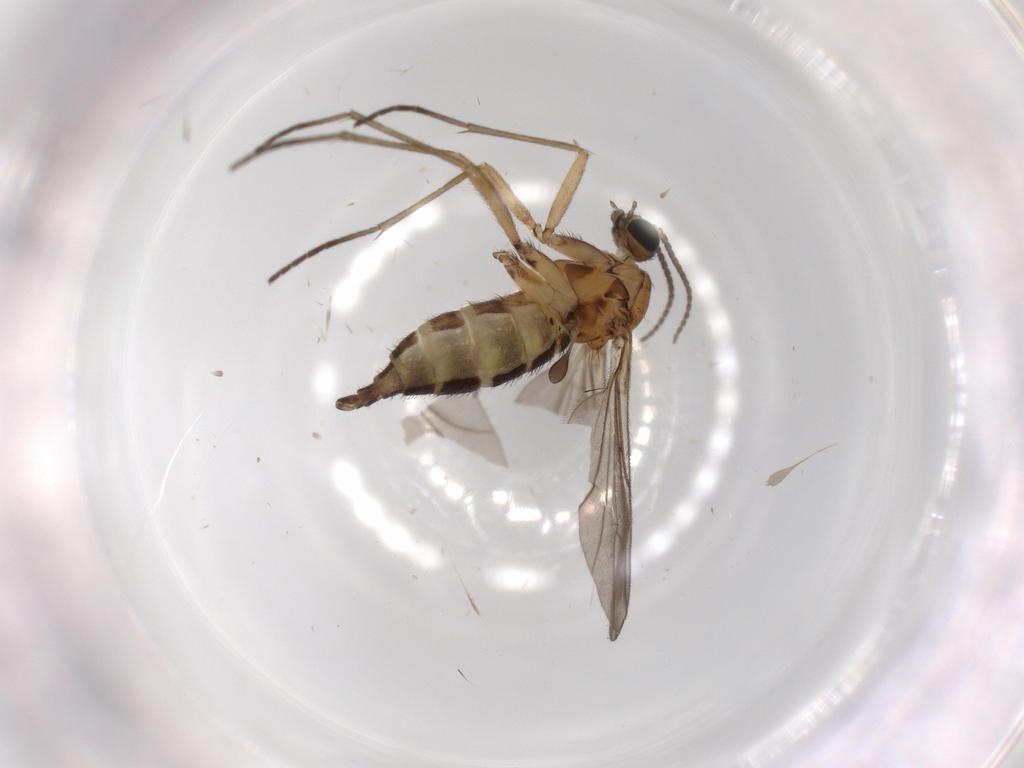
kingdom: Animalia
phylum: Arthropoda
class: Insecta
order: Diptera
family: Sciaridae
